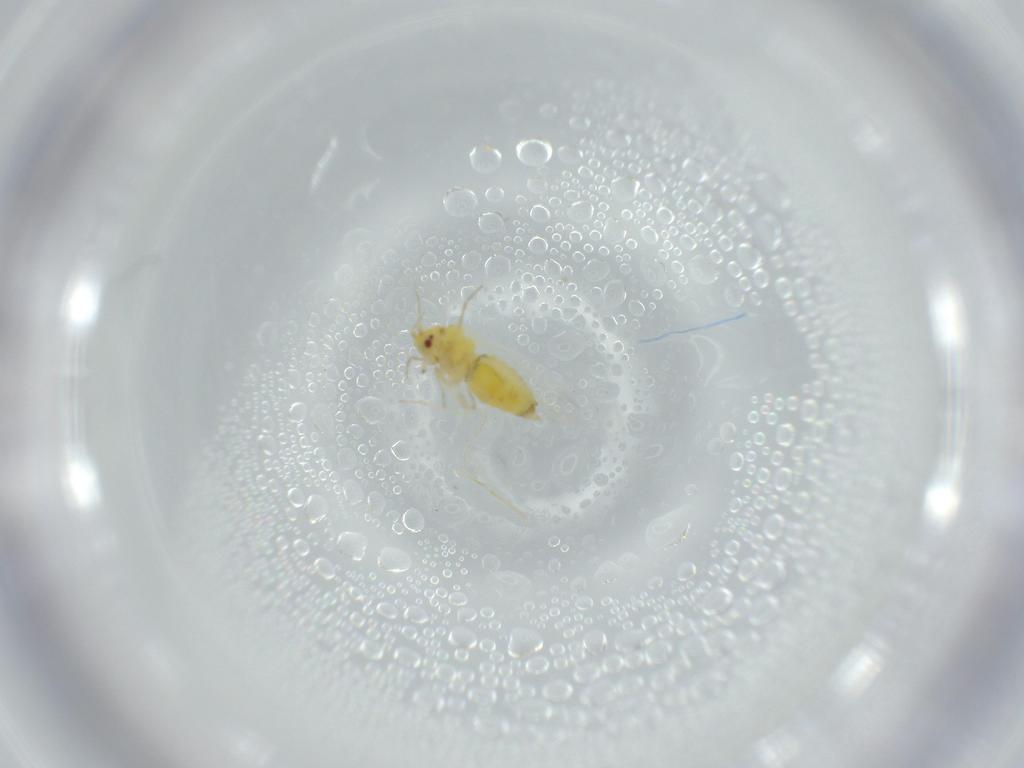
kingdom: Animalia
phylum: Arthropoda
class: Insecta
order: Hemiptera
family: Aleyrodidae
